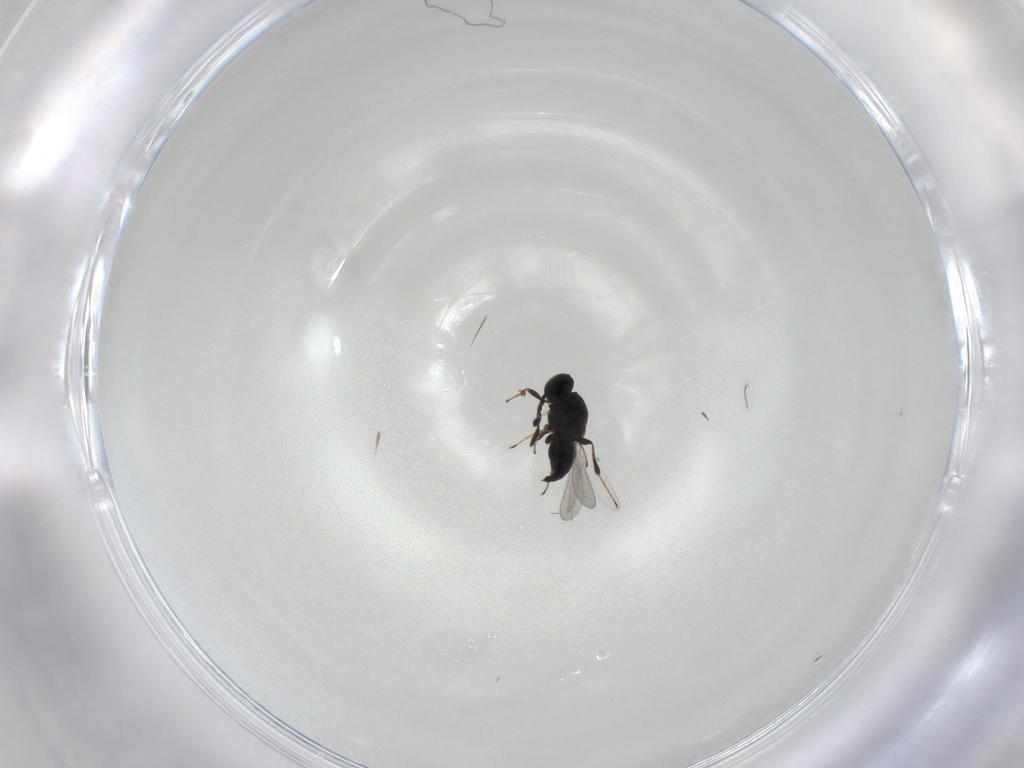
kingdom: Animalia
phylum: Arthropoda
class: Insecta
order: Hymenoptera
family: Platygastridae
